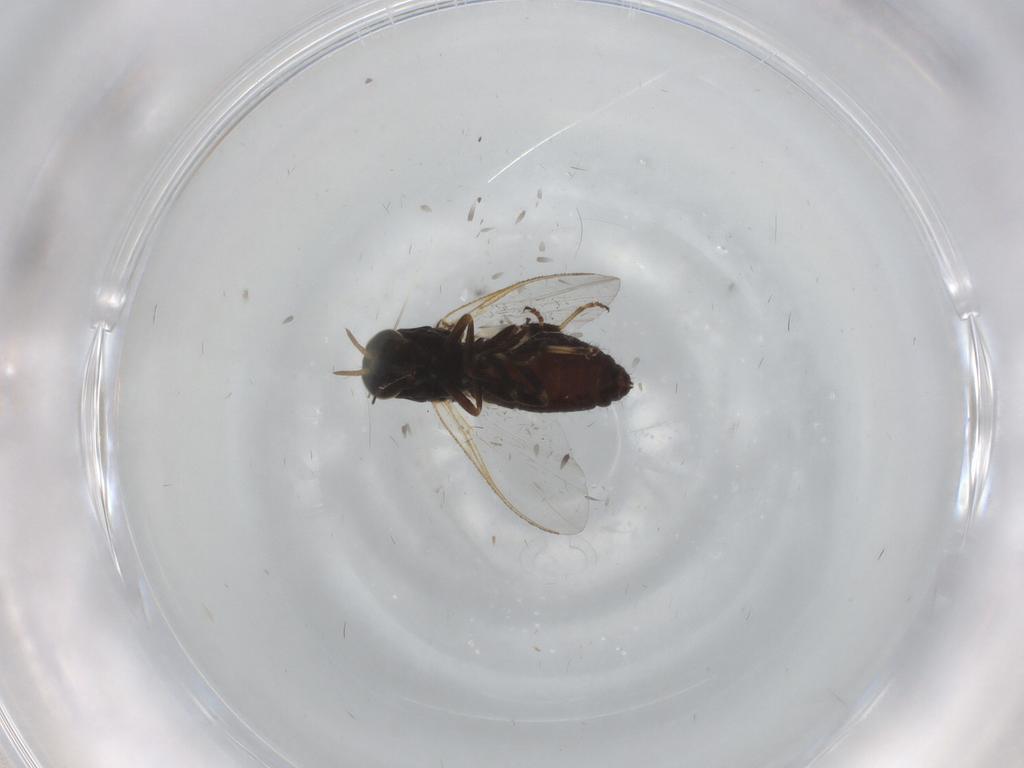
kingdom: Animalia
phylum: Arthropoda
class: Insecta
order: Diptera
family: Simuliidae
